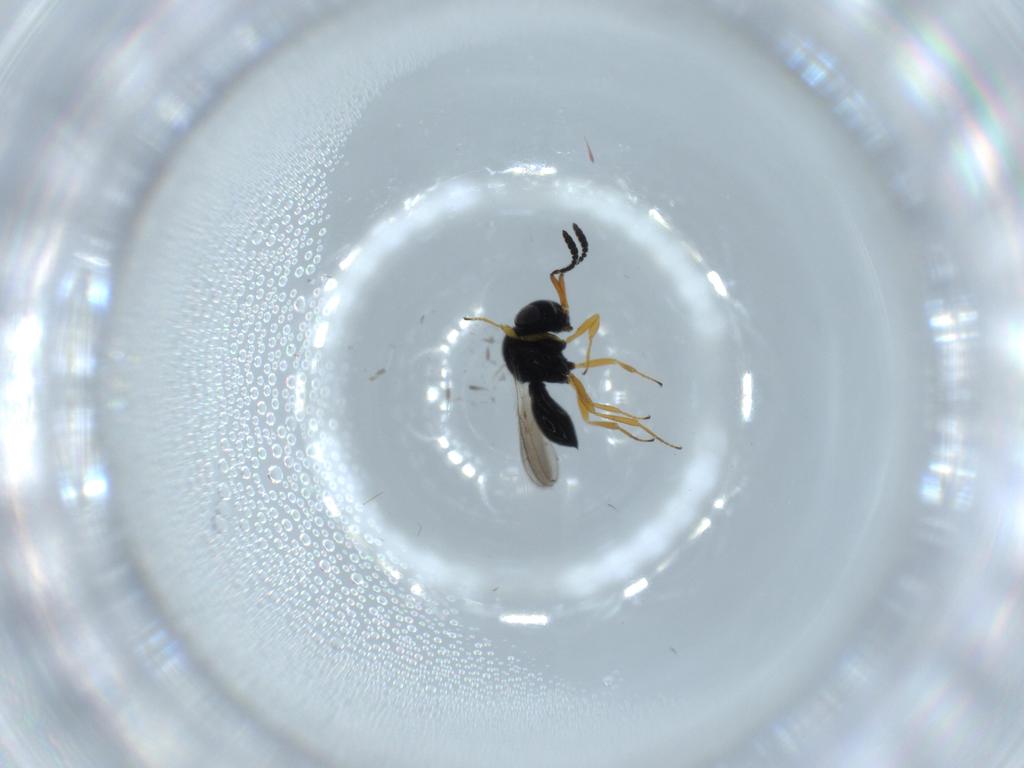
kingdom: Animalia
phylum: Arthropoda
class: Insecta
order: Hymenoptera
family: Scelionidae
